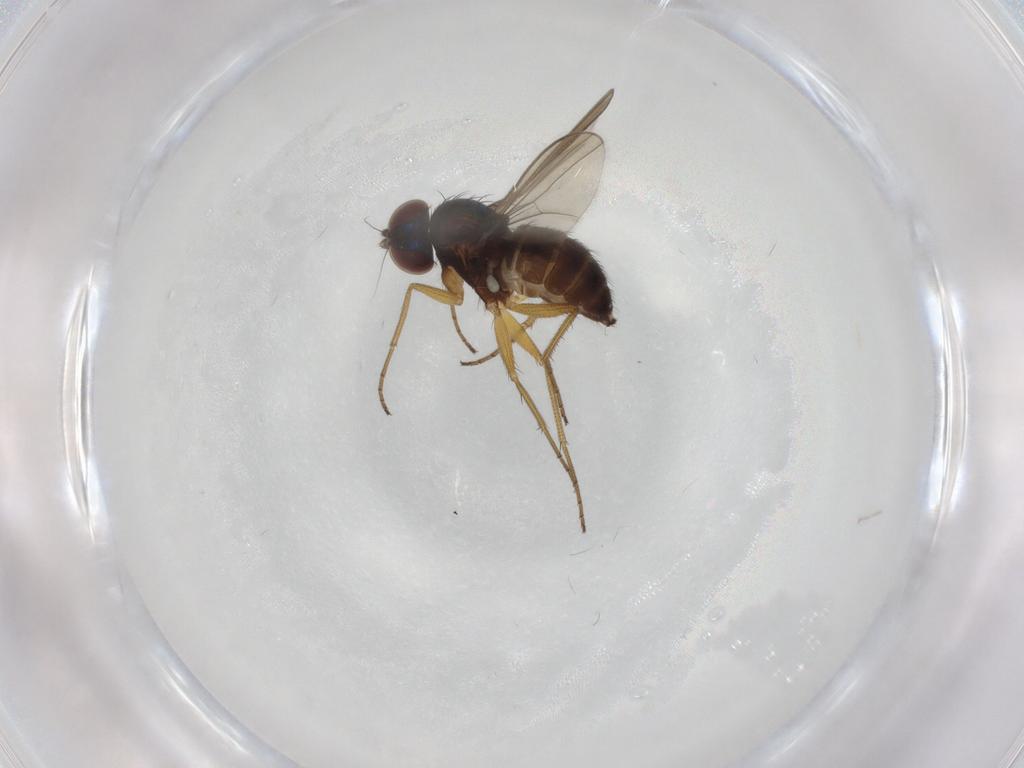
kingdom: Animalia
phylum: Arthropoda
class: Insecta
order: Diptera
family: Dolichopodidae
